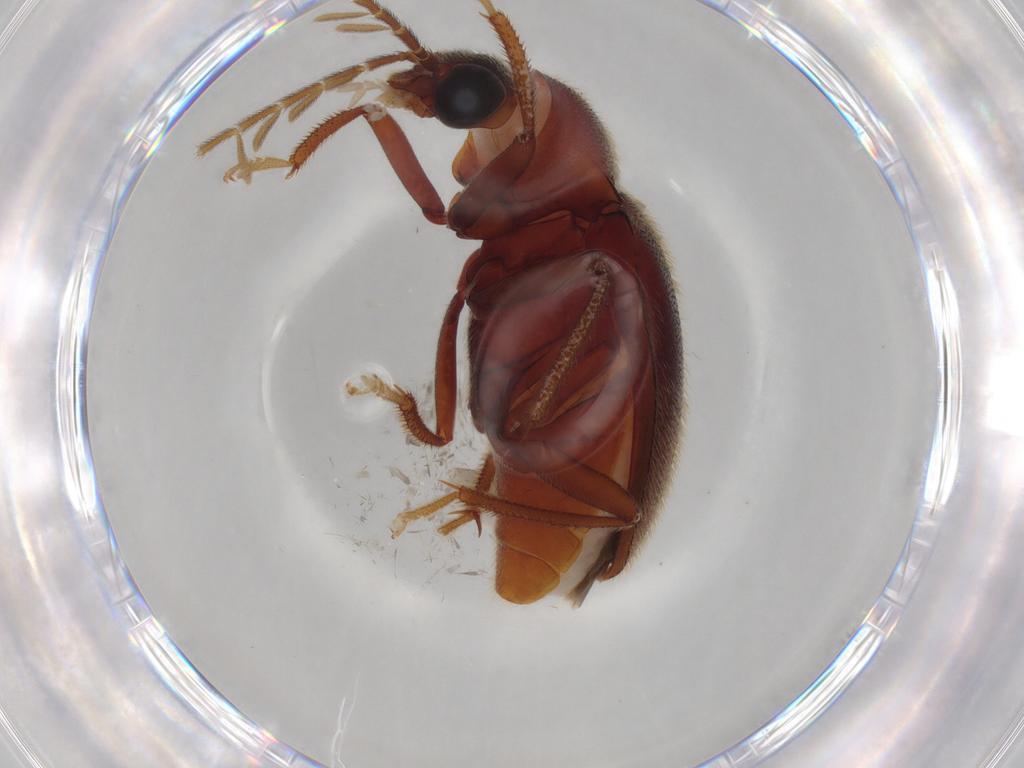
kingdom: Animalia
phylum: Arthropoda
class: Insecta
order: Coleoptera
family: Ptilodactylidae
